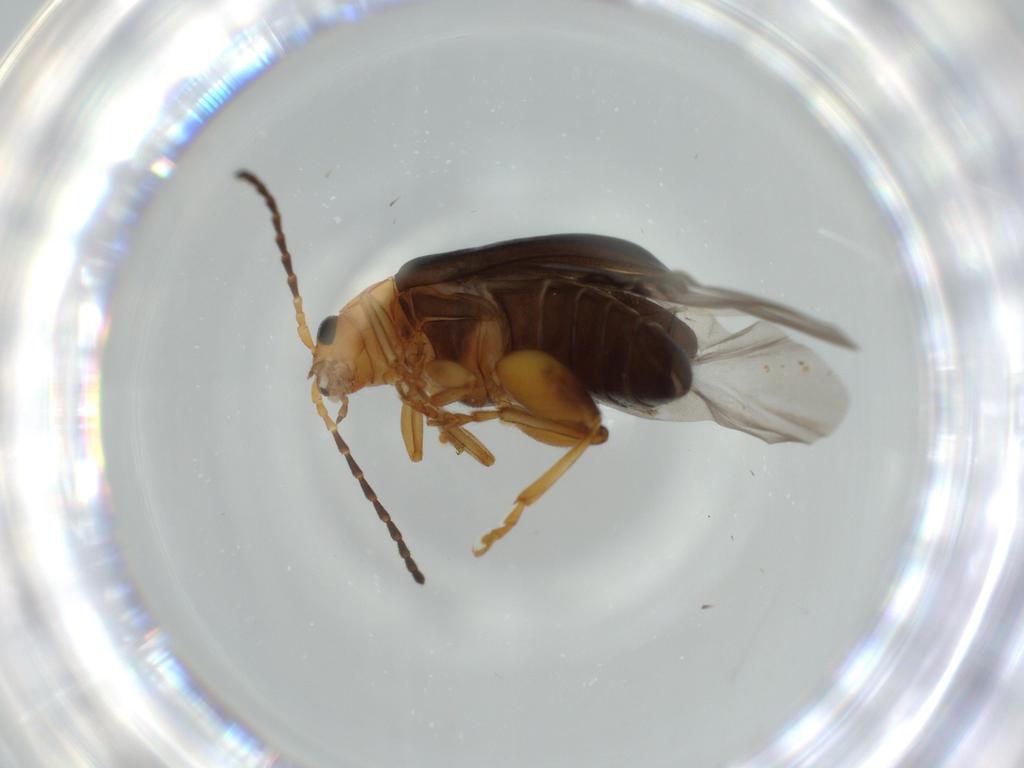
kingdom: Animalia
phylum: Arthropoda
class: Insecta
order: Coleoptera
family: Chrysomelidae
